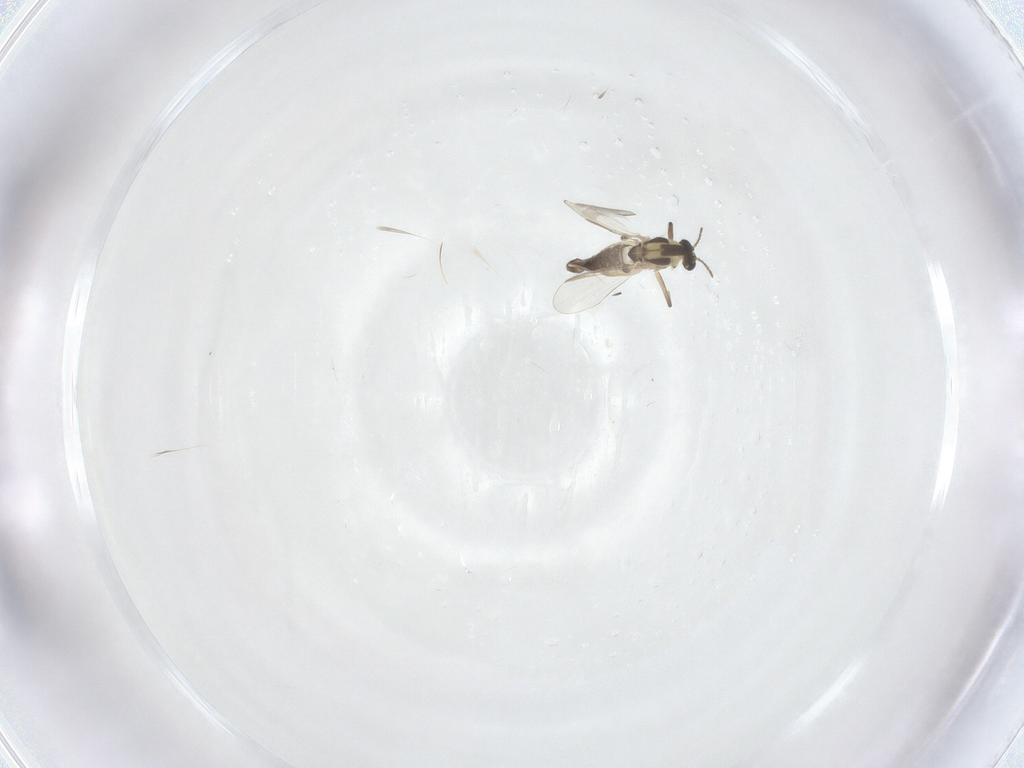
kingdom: Animalia
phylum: Arthropoda
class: Insecta
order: Diptera
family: Chironomidae
